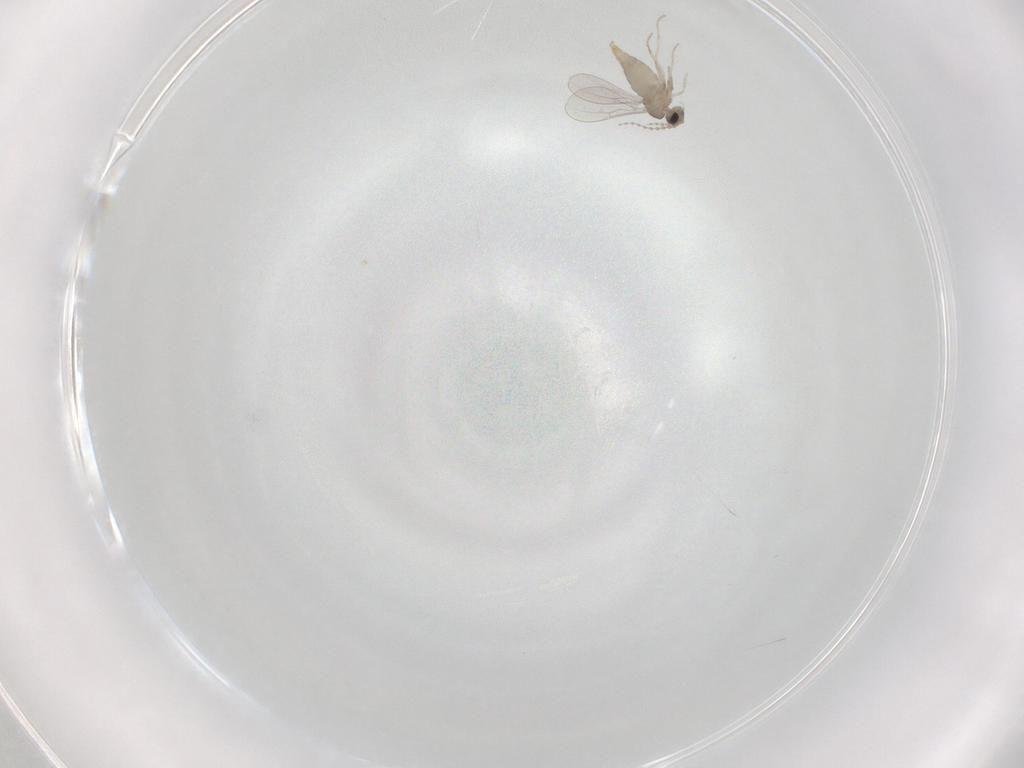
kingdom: Animalia
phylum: Arthropoda
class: Insecta
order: Diptera
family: Cecidomyiidae
